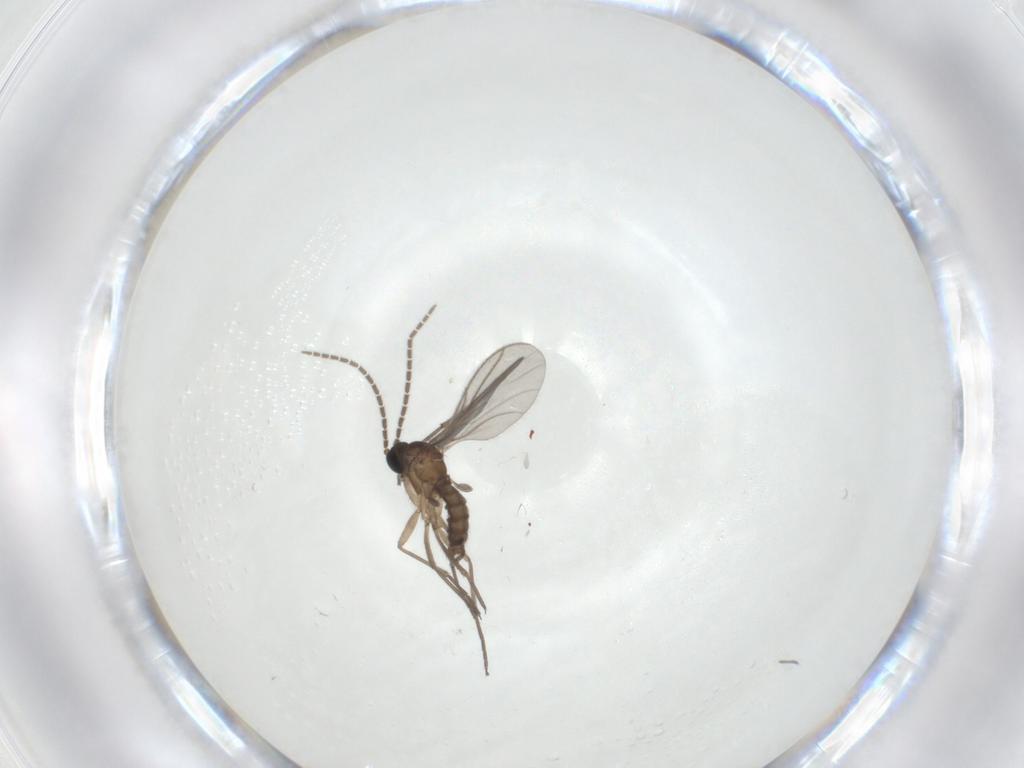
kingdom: Animalia
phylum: Arthropoda
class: Insecta
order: Diptera
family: Sciaridae
